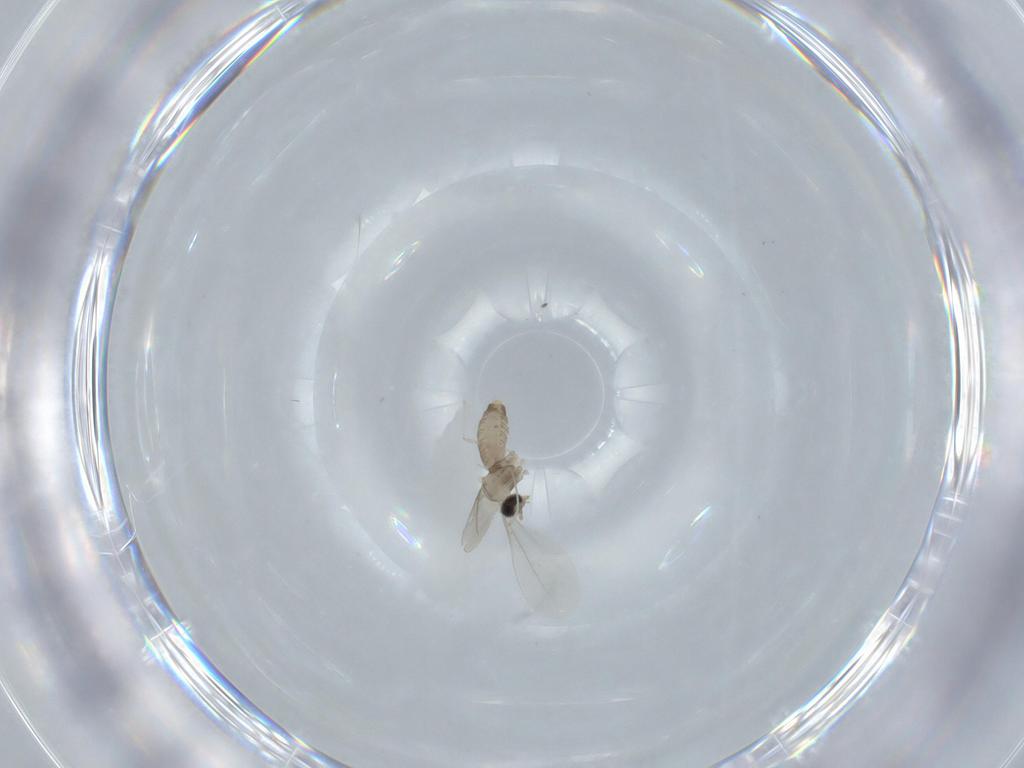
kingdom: Animalia
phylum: Arthropoda
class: Insecta
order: Diptera
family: Cecidomyiidae
